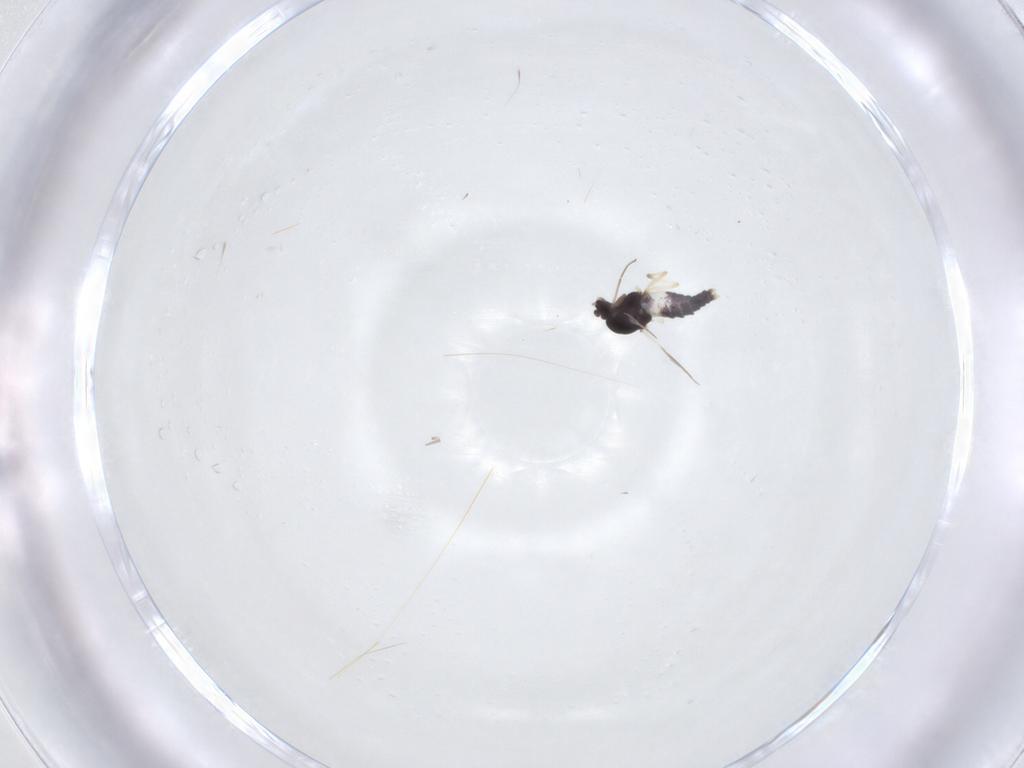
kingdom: Animalia
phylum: Arthropoda
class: Insecta
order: Diptera
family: Chironomidae
